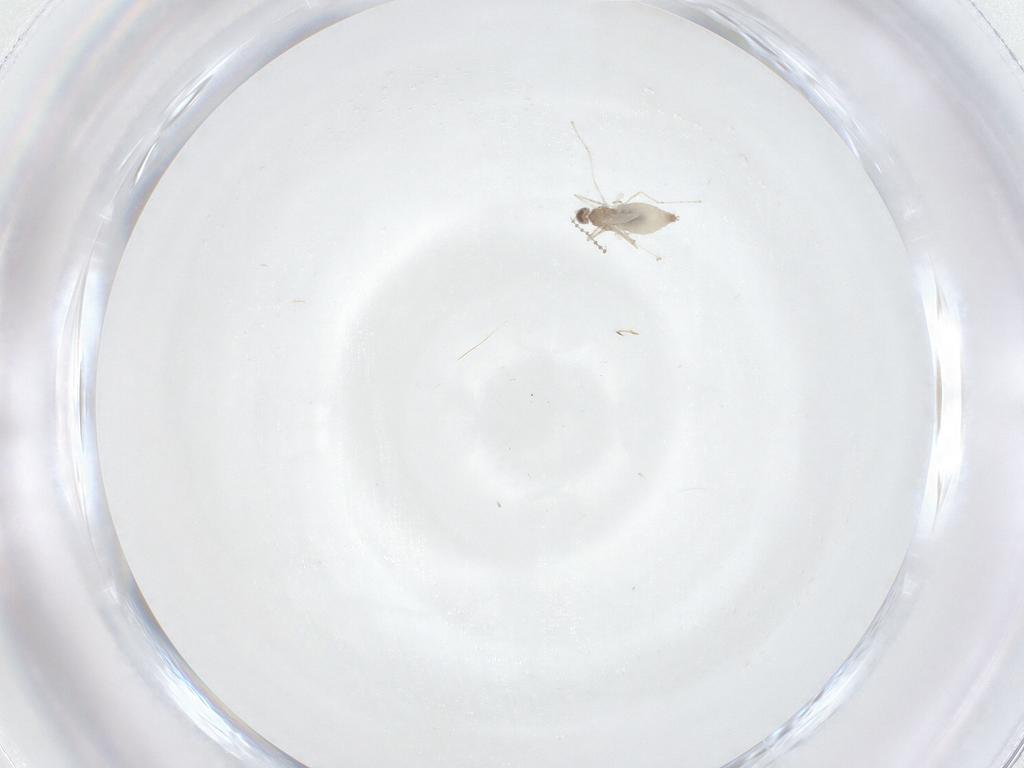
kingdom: Animalia
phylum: Arthropoda
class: Insecta
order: Diptera
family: Cecidomyiidae
